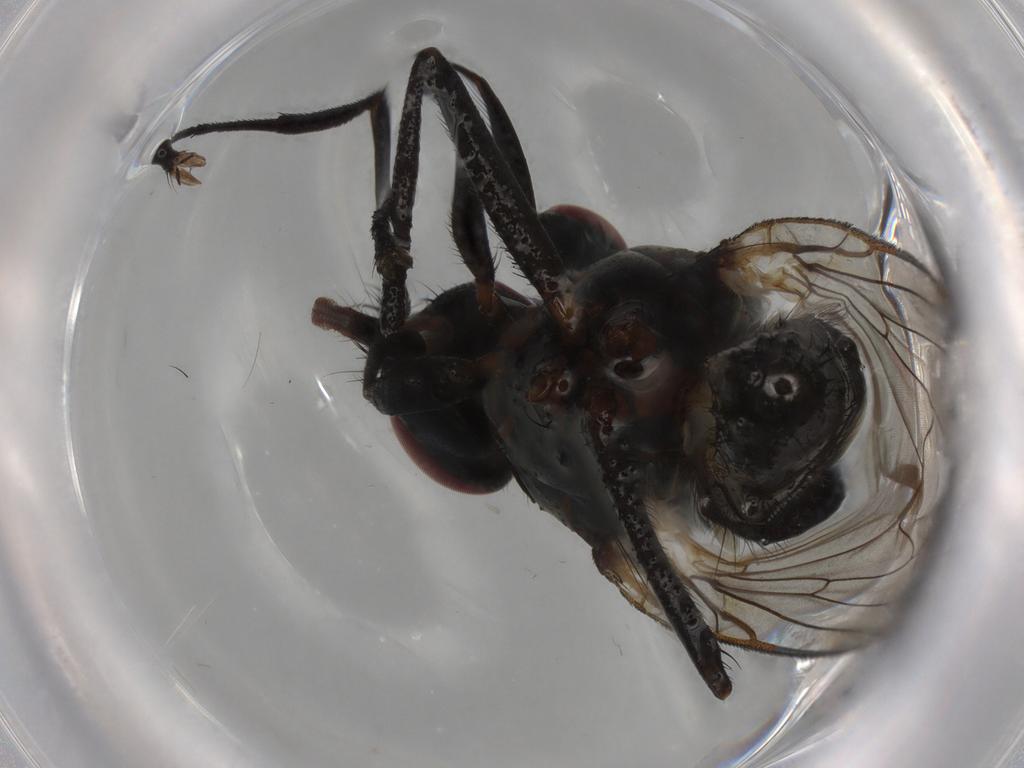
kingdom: Animalia
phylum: Arthropoda
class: Insecta
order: Diptera
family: Anthomyiidae
